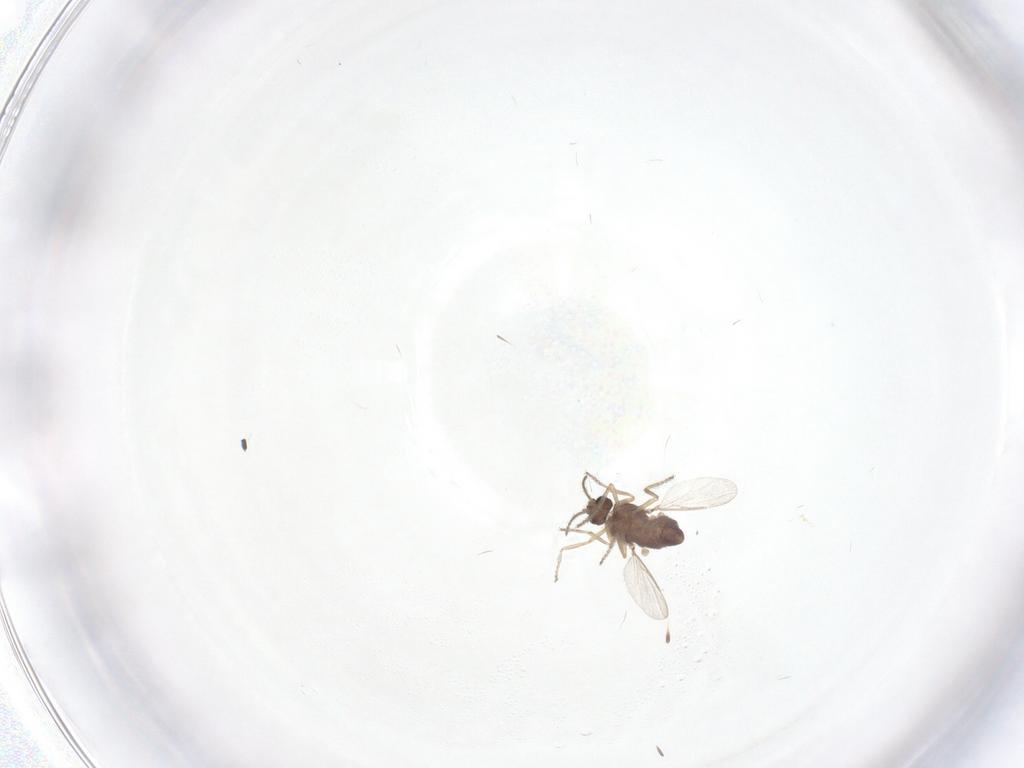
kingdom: Animalia
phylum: Arthropoda
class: Insecta
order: Diptera
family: Ceratopogonidae
